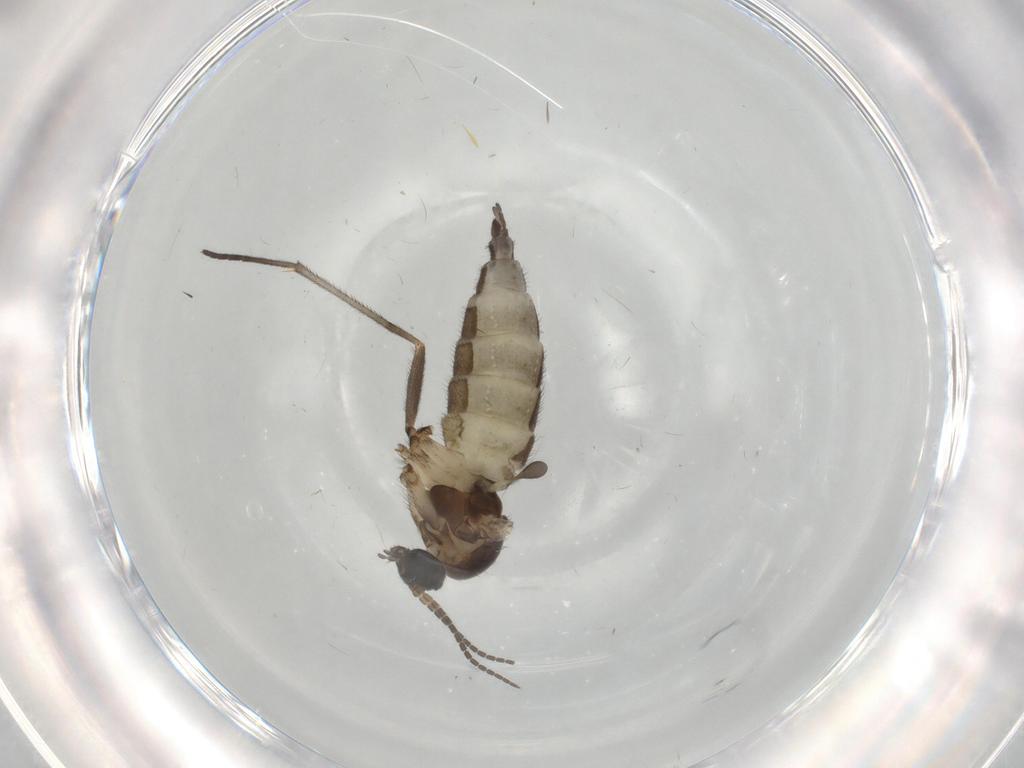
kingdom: Animalia
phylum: Arthropoda
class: Insecta
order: Diptera
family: Sciaridae
